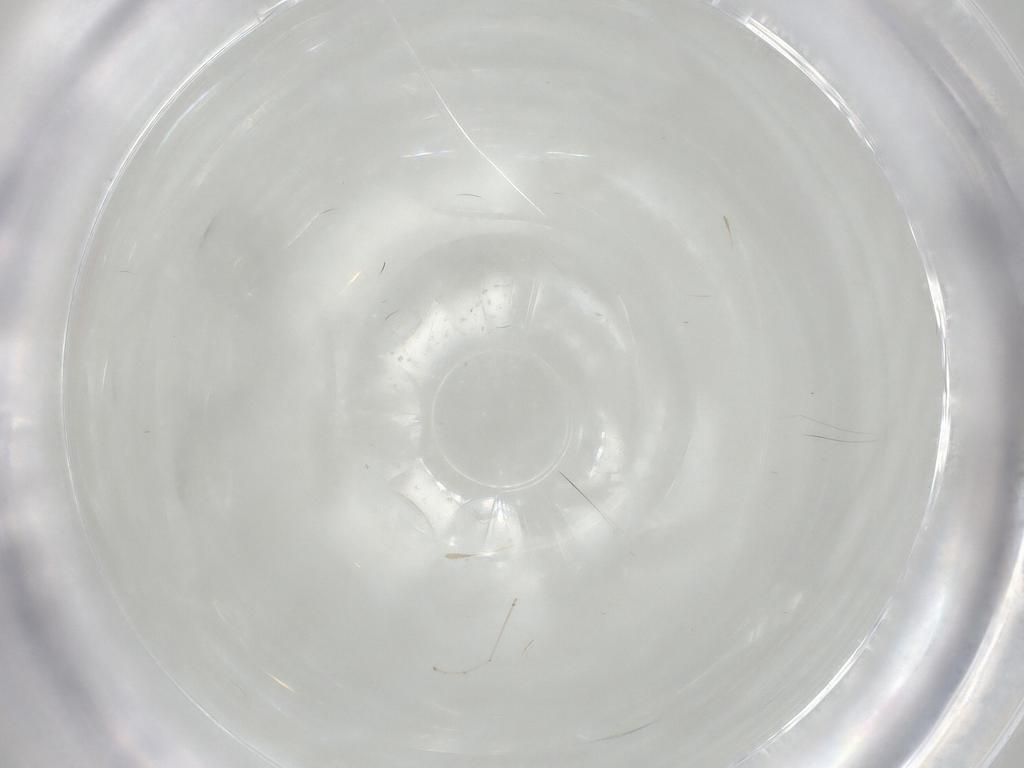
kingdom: Animalia
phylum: Arthropoda
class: Insecta
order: Diptera
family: Cecidomyiidae
